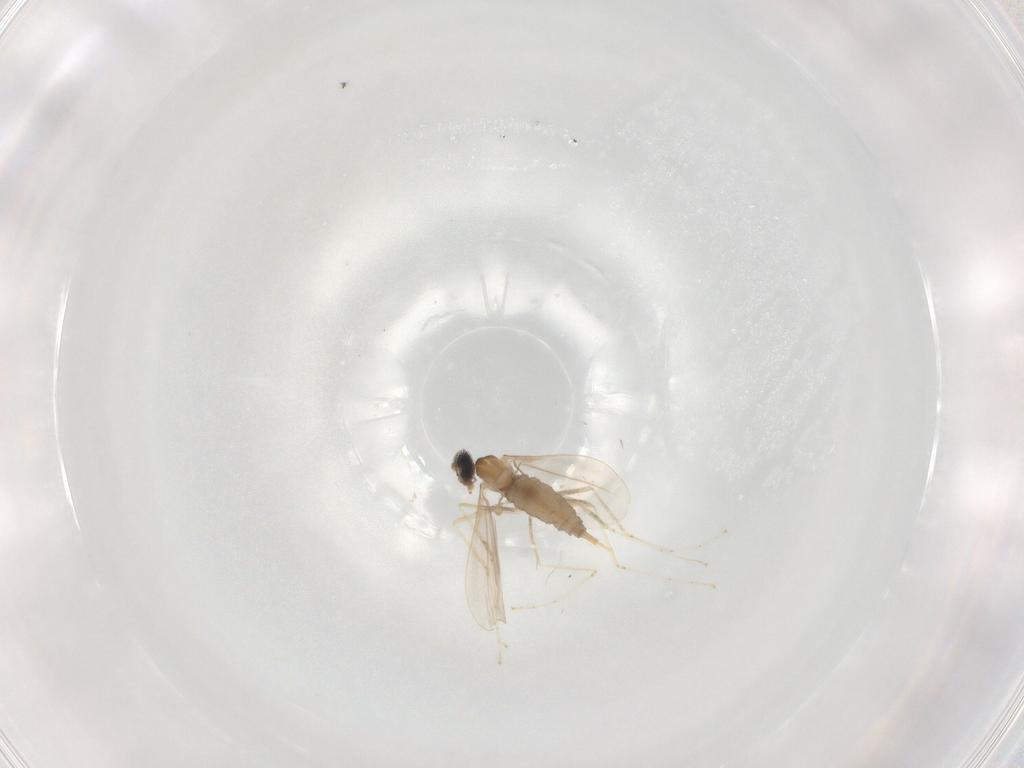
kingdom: Animalia
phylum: Arthropoda
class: Insecta
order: Diptera
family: Cecidomyiidae
